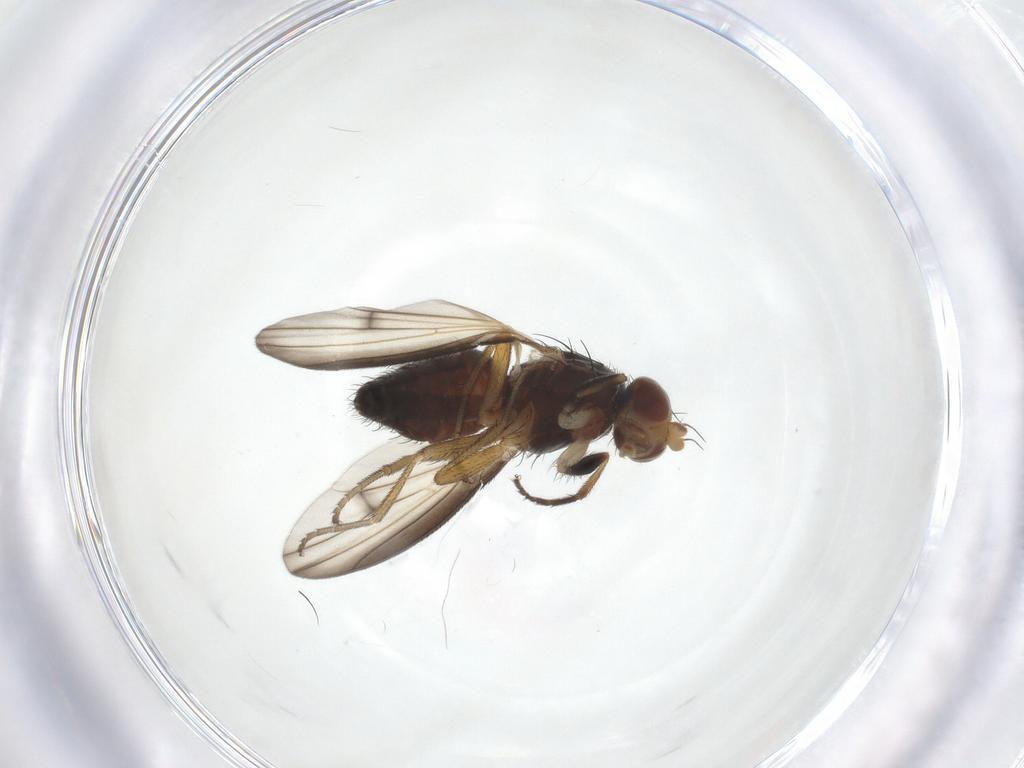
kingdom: Animalia
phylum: Arthropoda
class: Insecta
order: Diptera
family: Heleomyzidae
